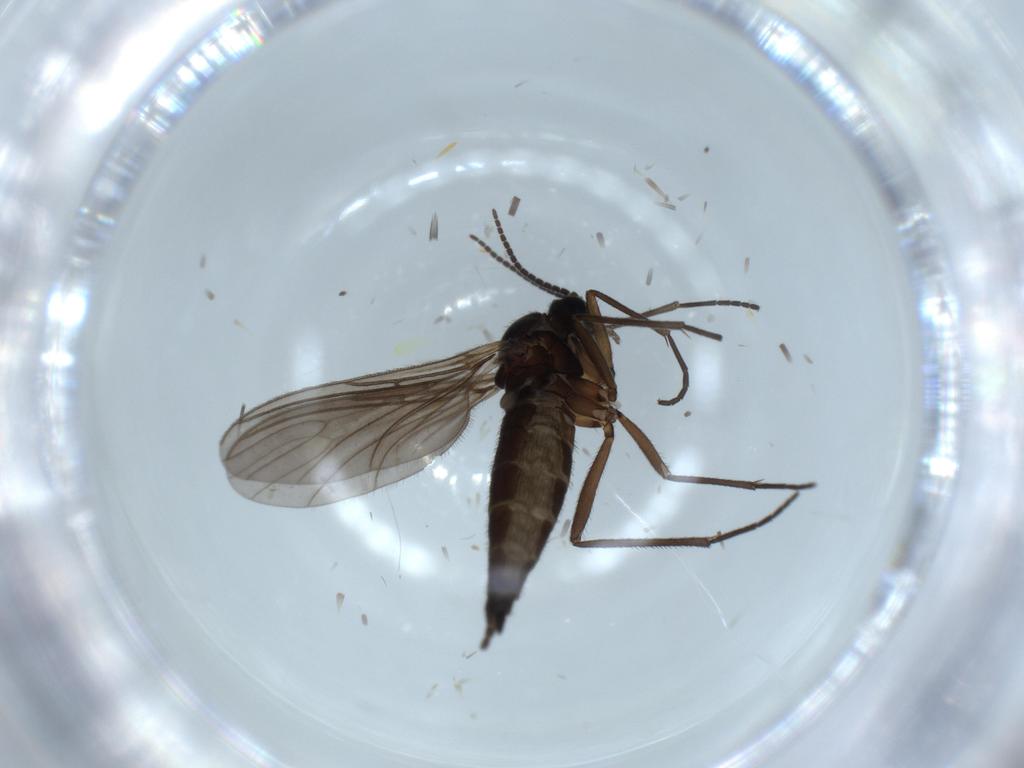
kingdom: Animalia
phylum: Arthropoda
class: Insecta
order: Diptera
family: Sciaridae
